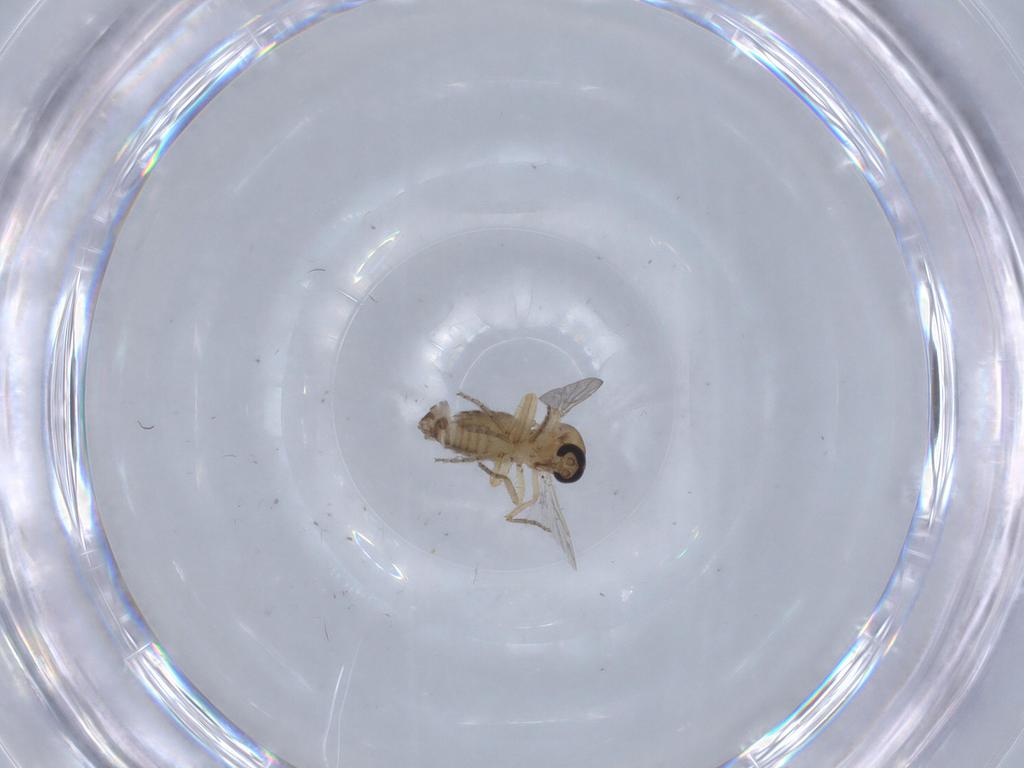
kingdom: Animalia
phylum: Arthropoda
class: Insecta
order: Diptera
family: Ceratopogonidae
